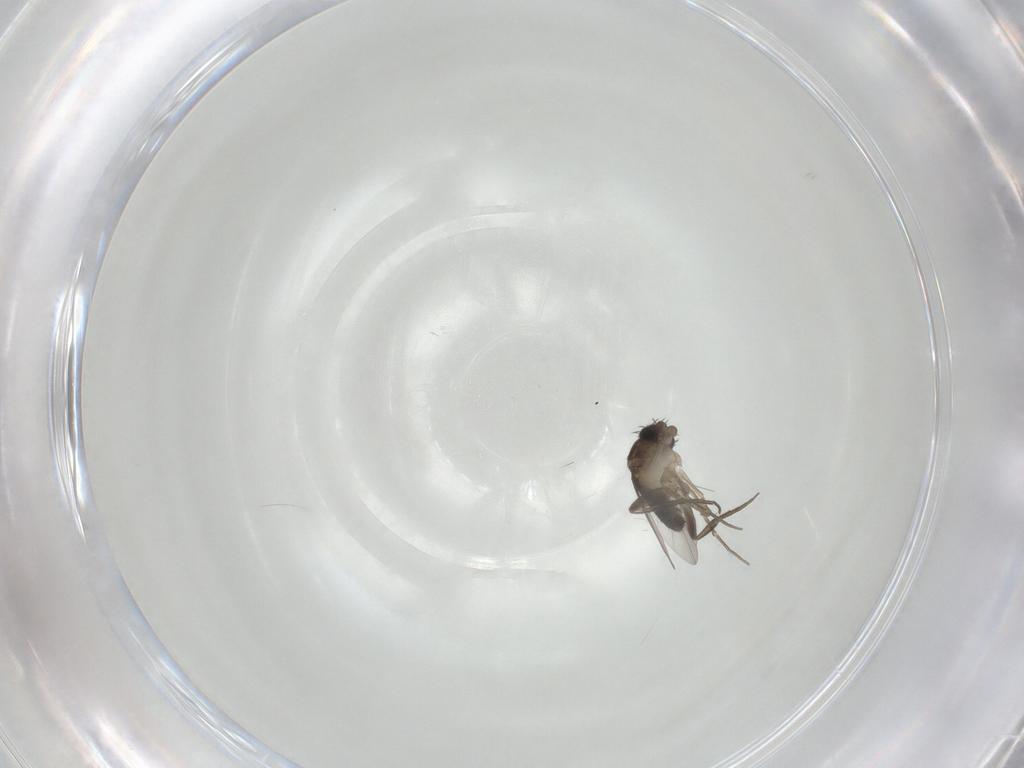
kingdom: Animalia
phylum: Arthropoda
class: Insecta
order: Diptera
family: Phoridae
